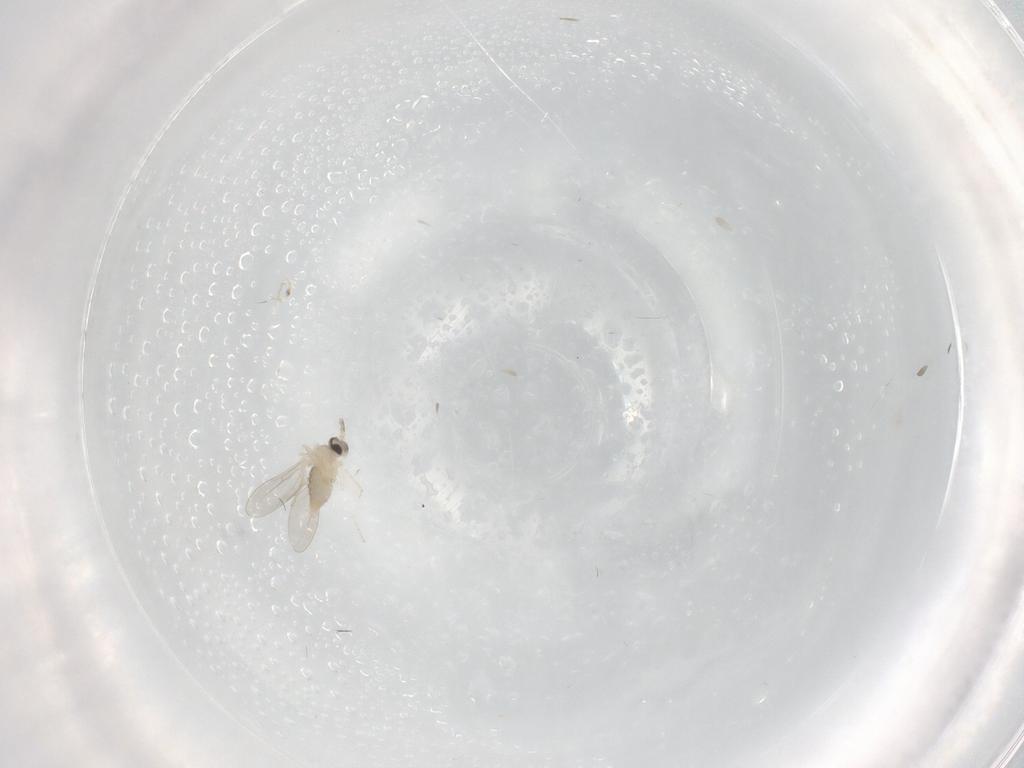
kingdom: Animalia
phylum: Arthropoda
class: Insecta
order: Diptera
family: Cecidomyiidae
